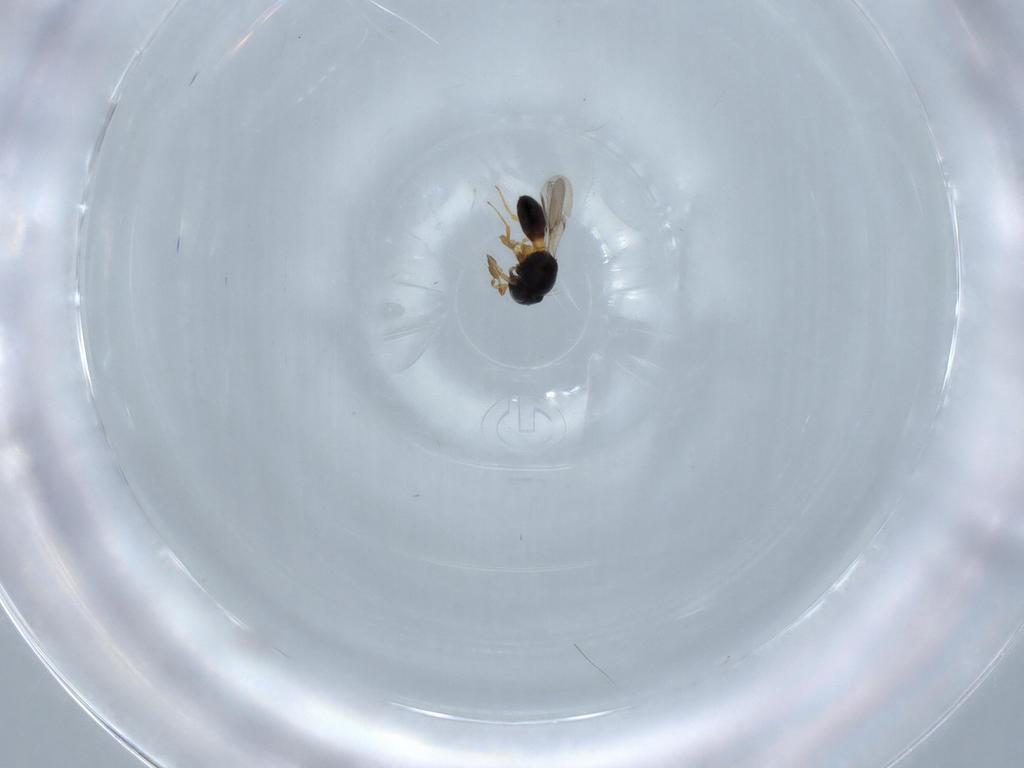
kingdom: Animalia
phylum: Arthropoda
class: Insecta
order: Hymenoptera
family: Scelionidae
